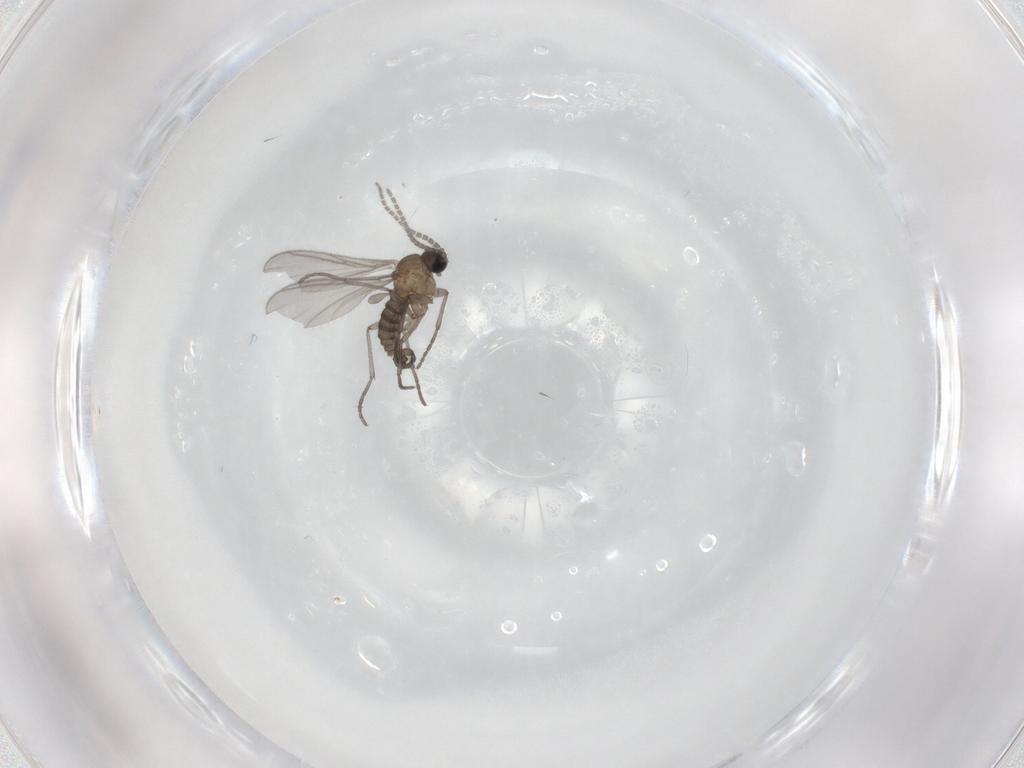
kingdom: Animalia
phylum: Arthropoda
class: Insecta
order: Diptera
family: Sciaridae
